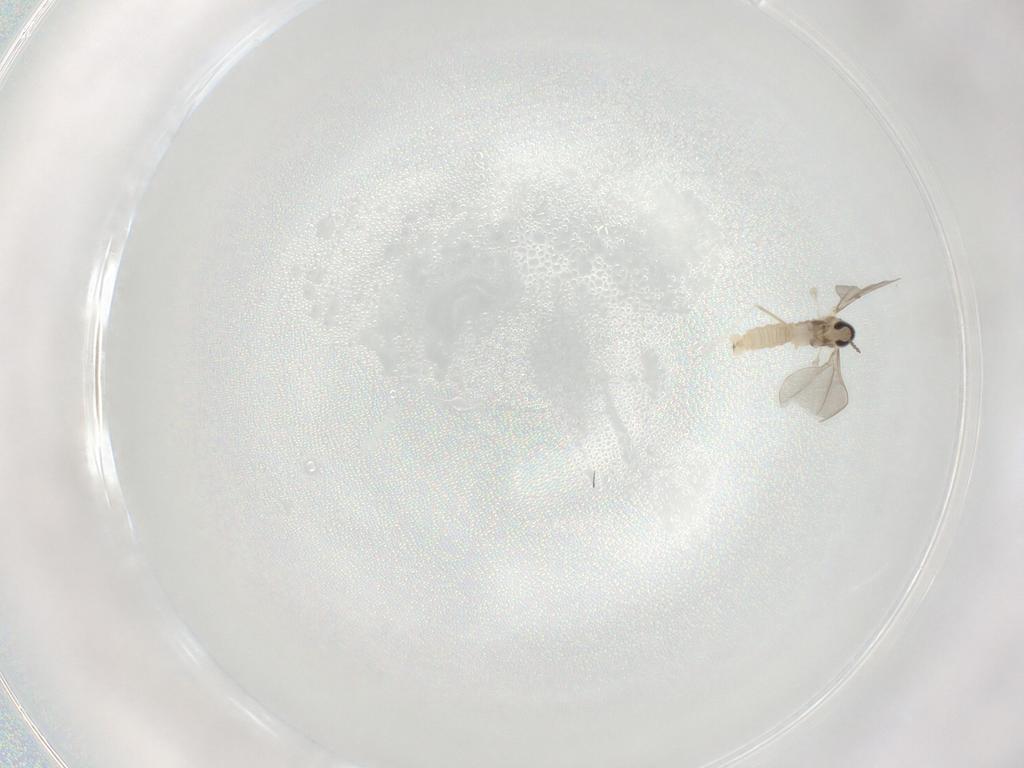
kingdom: Animalia
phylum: Arthropoda
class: Insecta
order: Diptera
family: Cecidomyiidae
